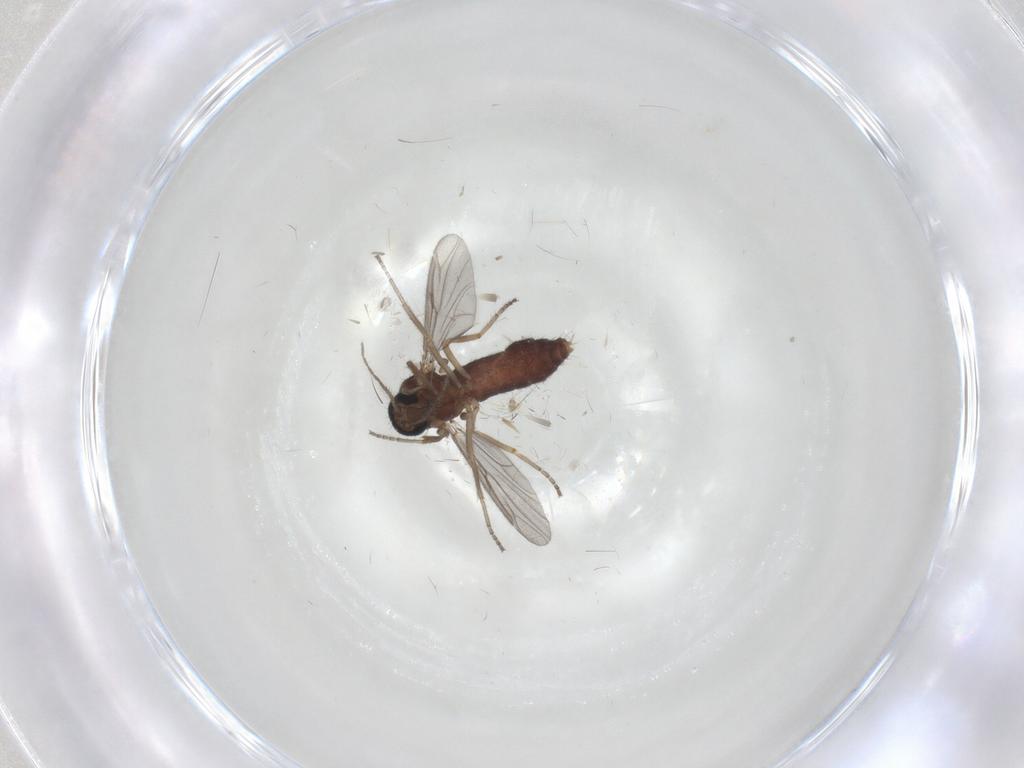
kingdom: Animalia
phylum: Arthropoda
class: Insecta
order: Diptera
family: Ceratopogonidae
